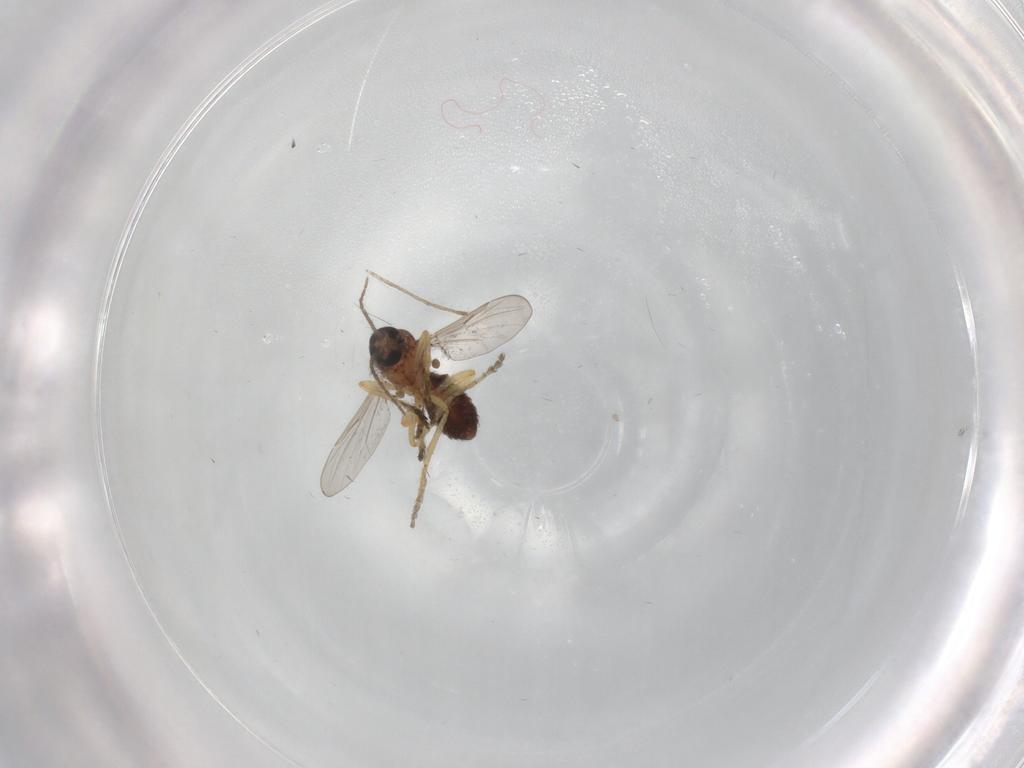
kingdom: Animalia
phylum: Arthropoda
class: Insecta
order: Diptera
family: Ceratopogonidae
